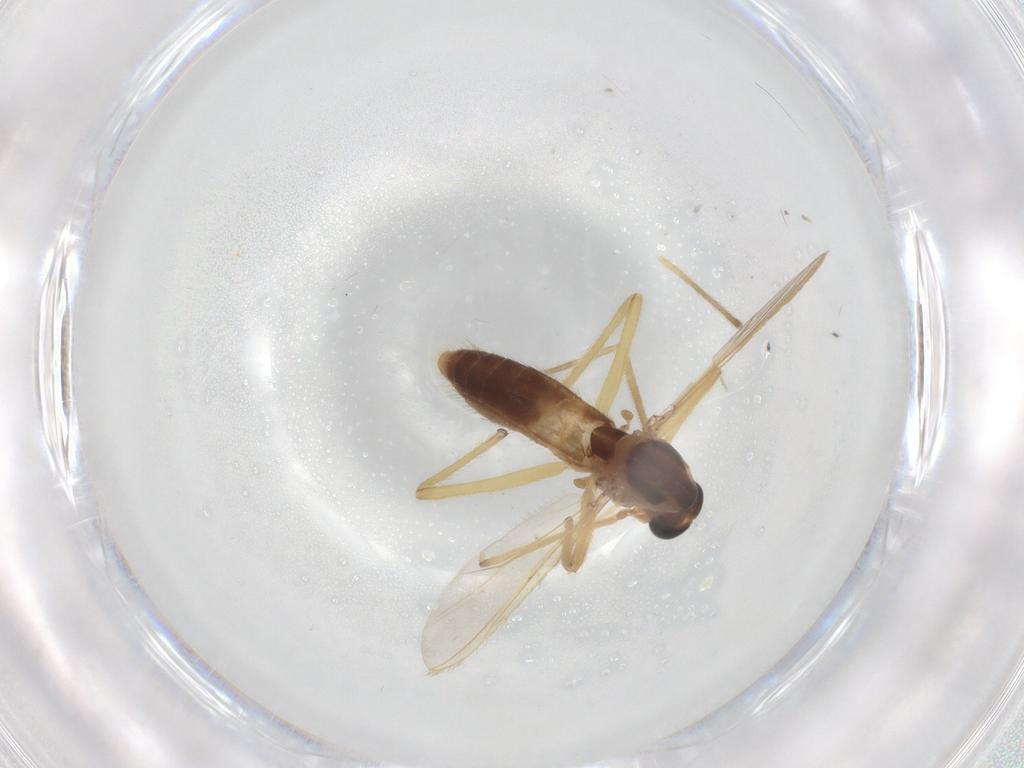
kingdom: Animalia
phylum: Arthropoda
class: Insecta
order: Diptera
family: Chironomidae
